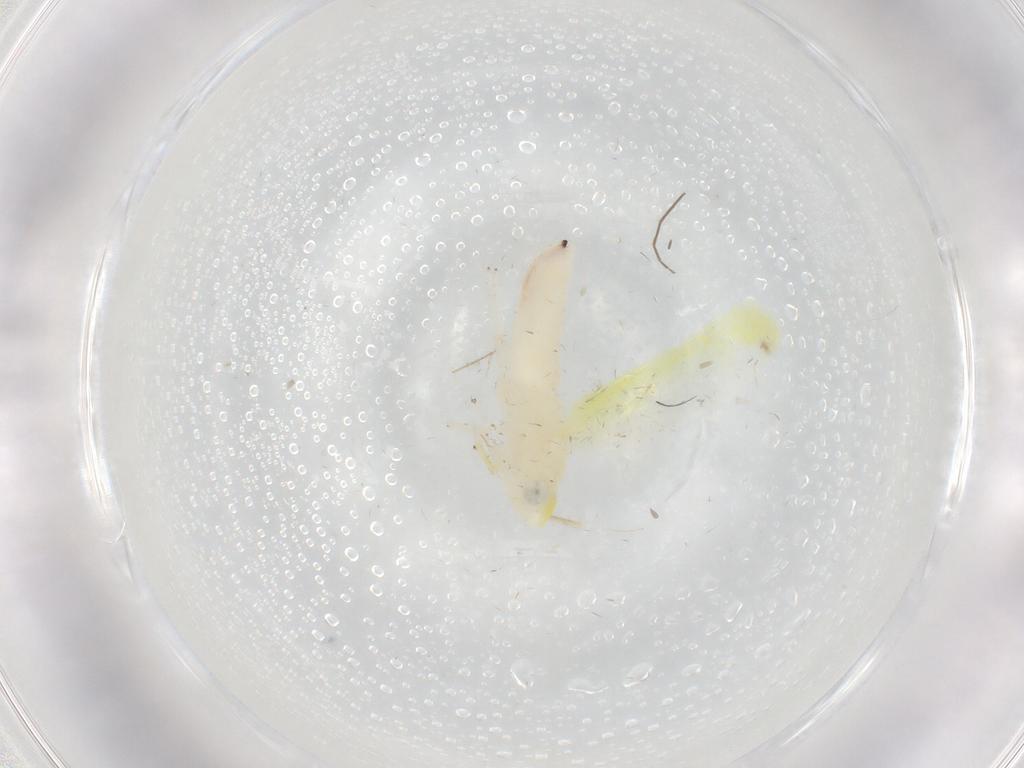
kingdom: Animalia
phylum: Arthropoda
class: Insecta
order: Hemiptera
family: Cicadellidae
